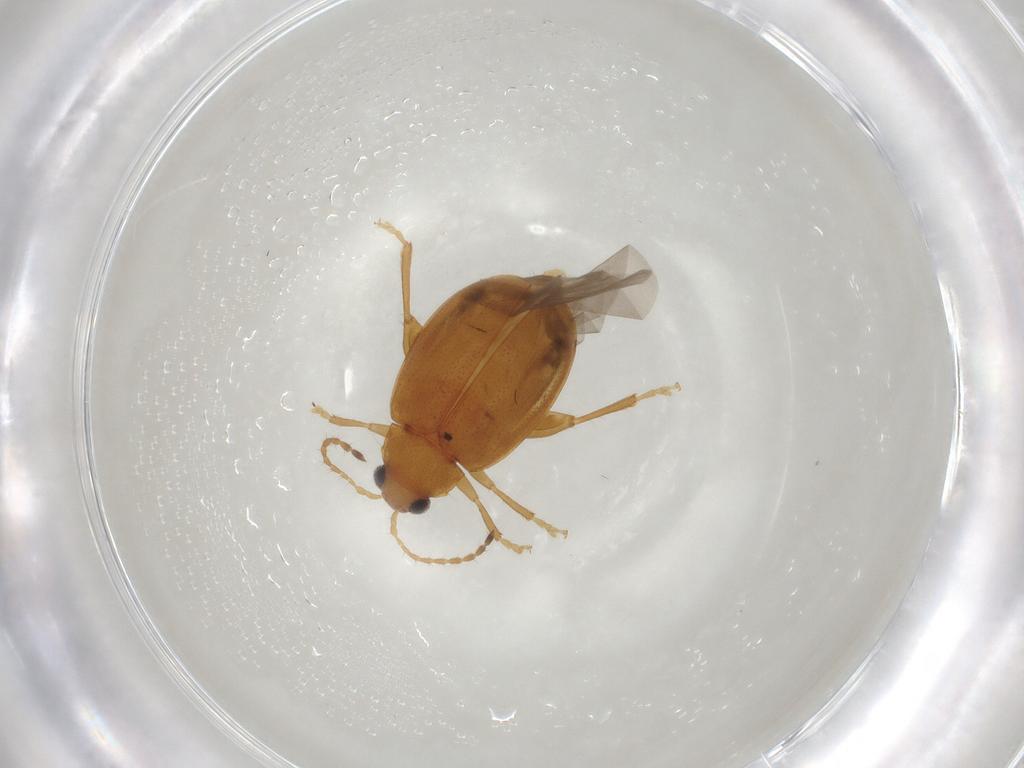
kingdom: Animalia
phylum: Arthropoda
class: Insecta
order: Coleoptera
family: Chrysomelidae
